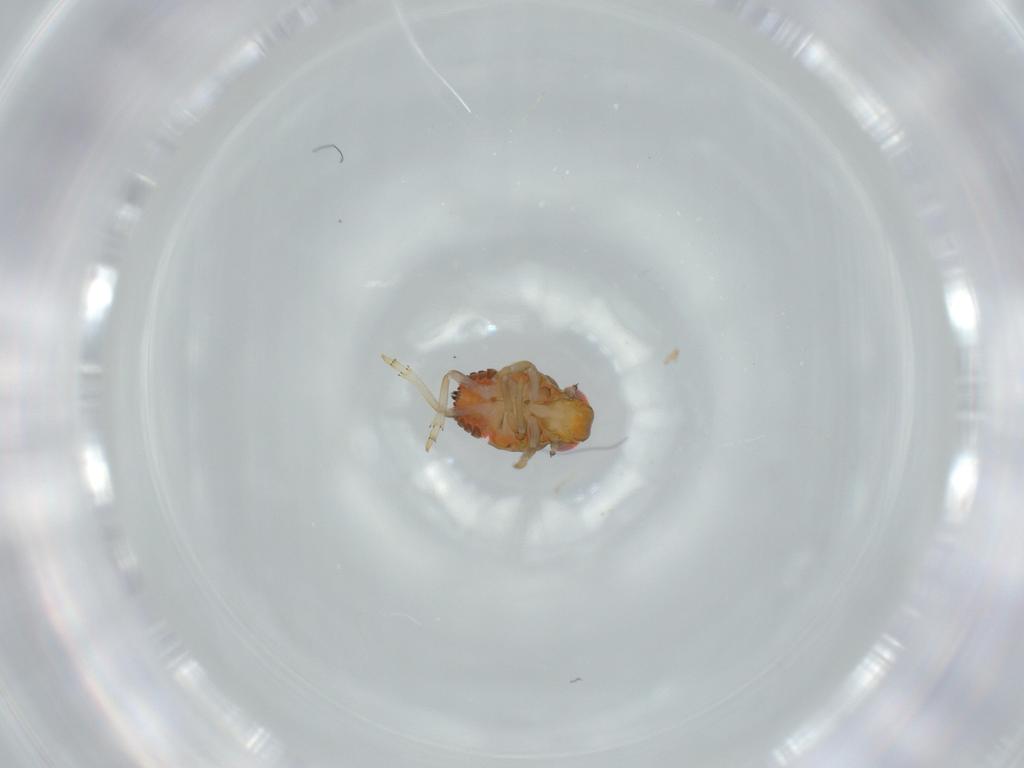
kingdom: Animalia
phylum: Arthropoda
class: Insecta
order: Hemiptera
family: Issidae
